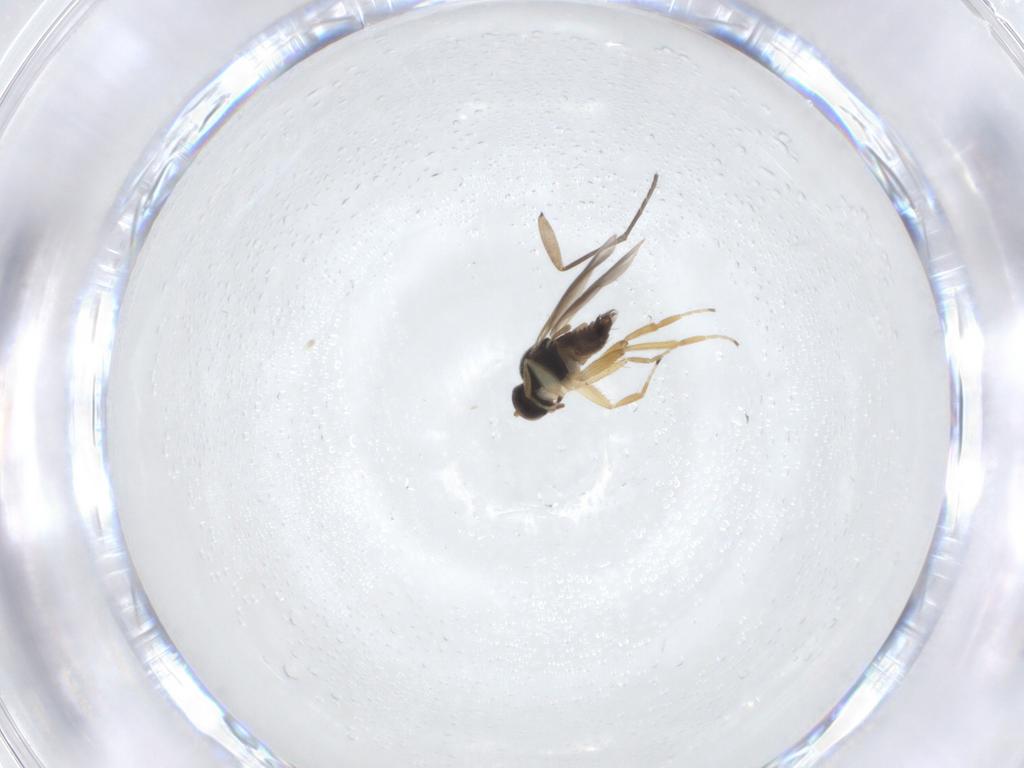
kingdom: Animalia
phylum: Arthropoda
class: Insecta
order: Diptera
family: Hybotidae
